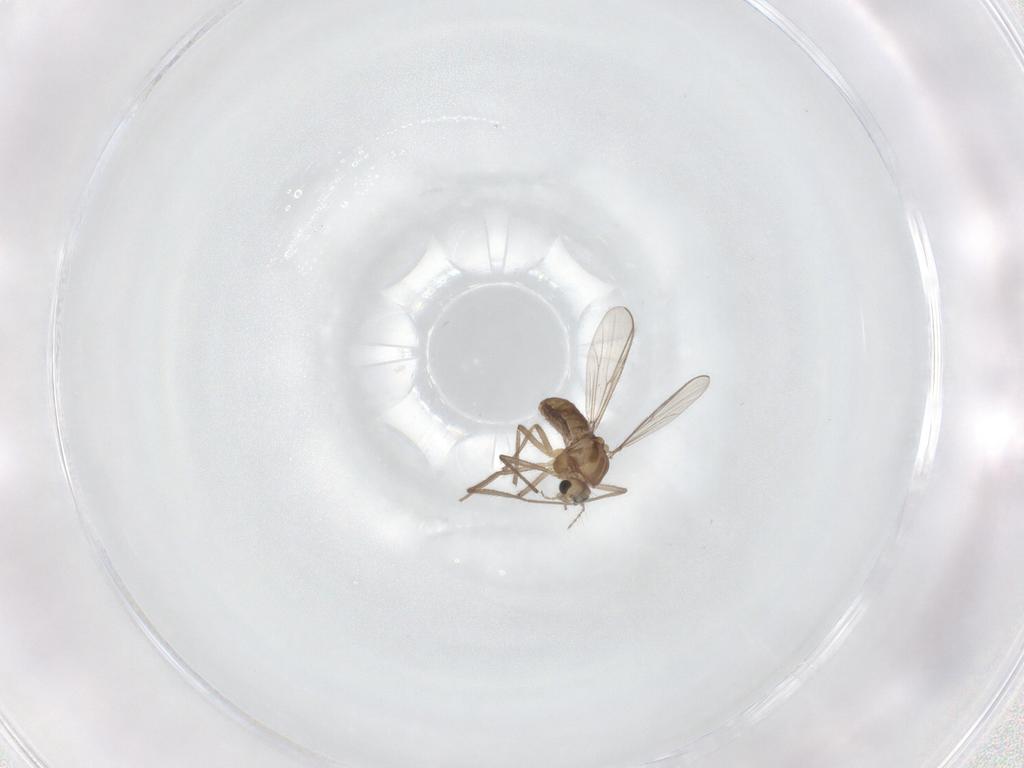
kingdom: Animalia
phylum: Arthropoda
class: Insecta
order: Diptera
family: Chironomidae
